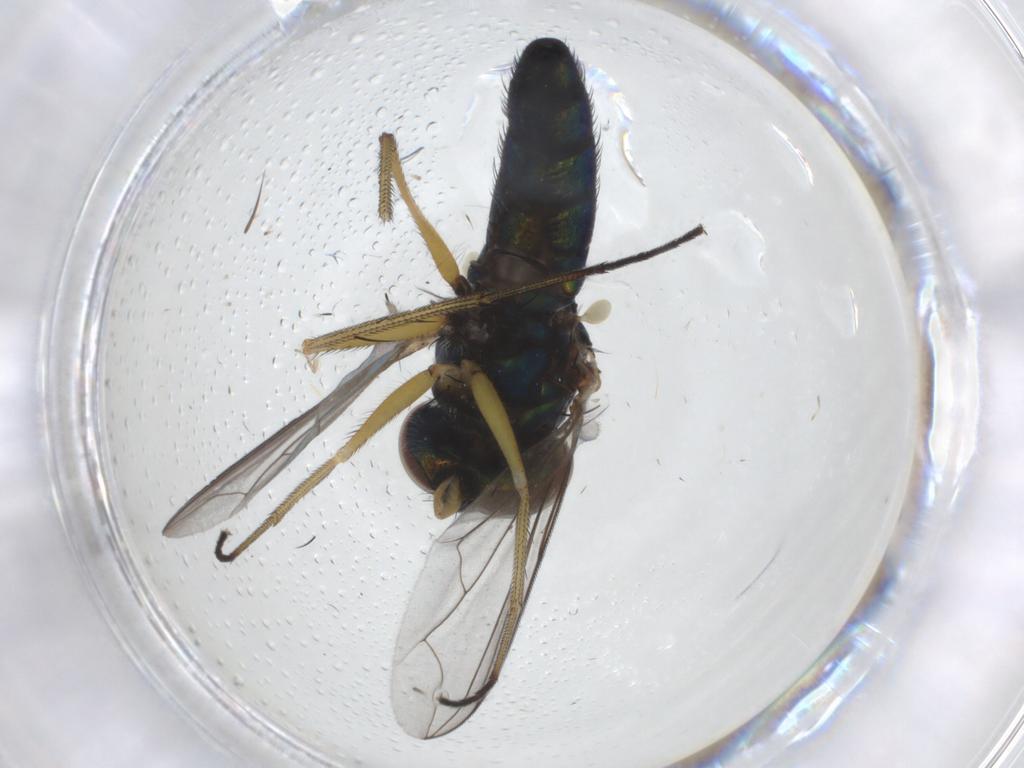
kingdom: Animalia
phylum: Arthropoda
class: Insecta
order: Diptera
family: Dolichopodidae
